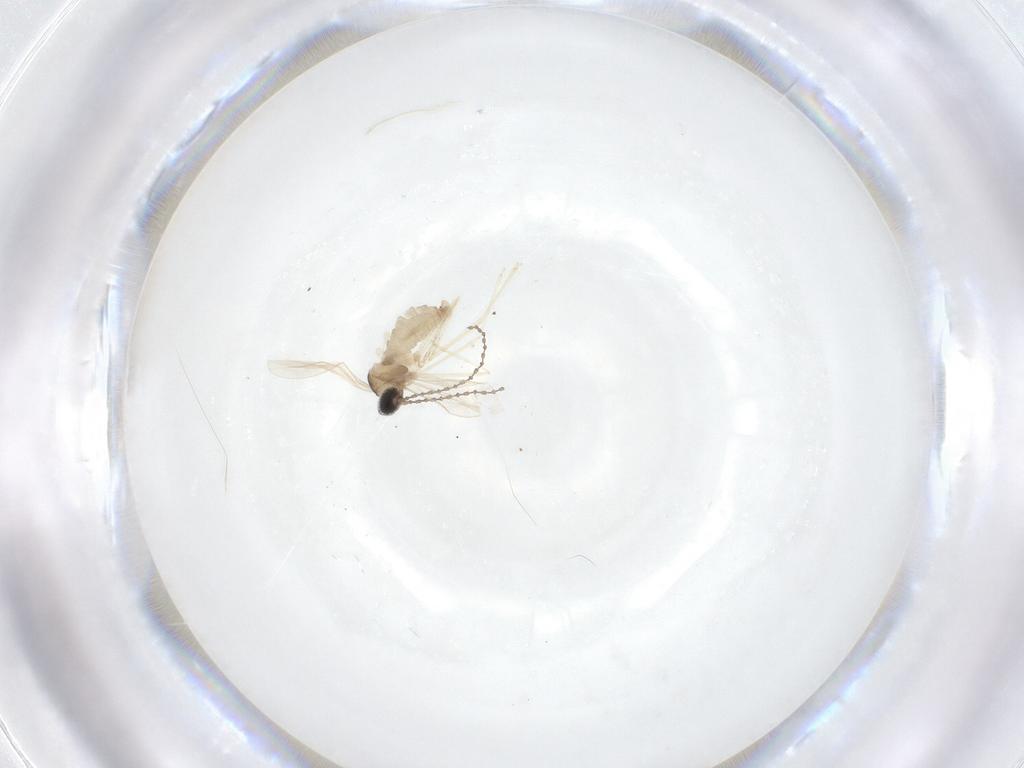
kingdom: Animalia
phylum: Arthropoda
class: Insecta
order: Diptera
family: Cecidomyiidae
